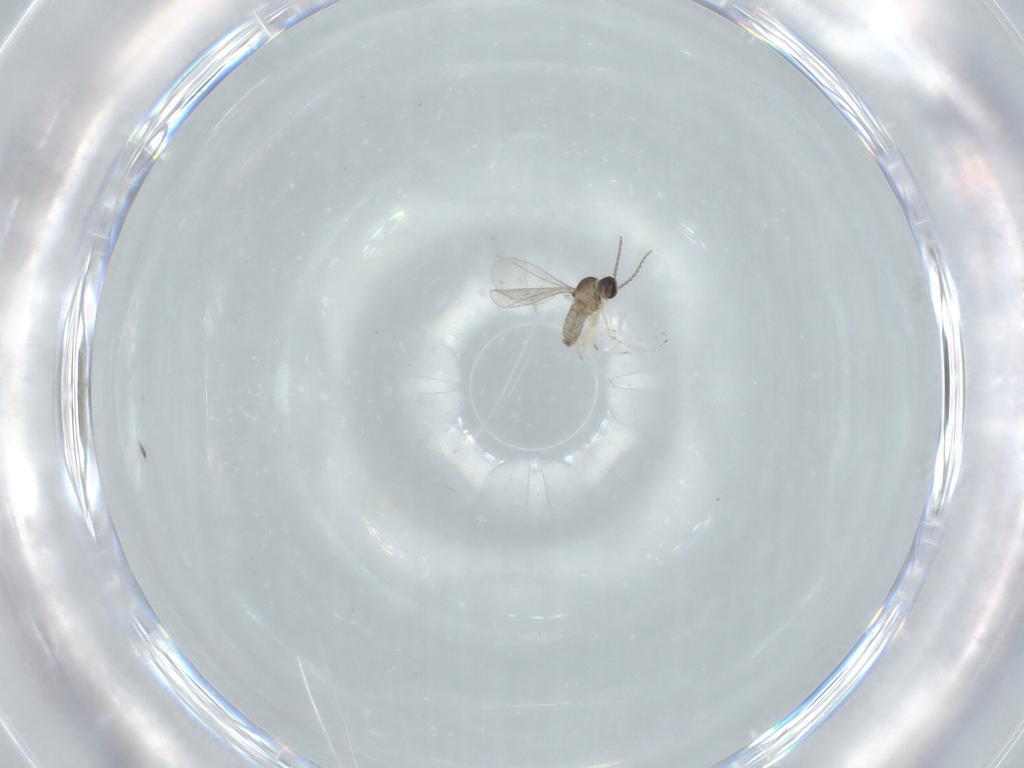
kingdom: Animalia
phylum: Arthropoda
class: Insecta
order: Diptera
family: Cecidomyiidae
